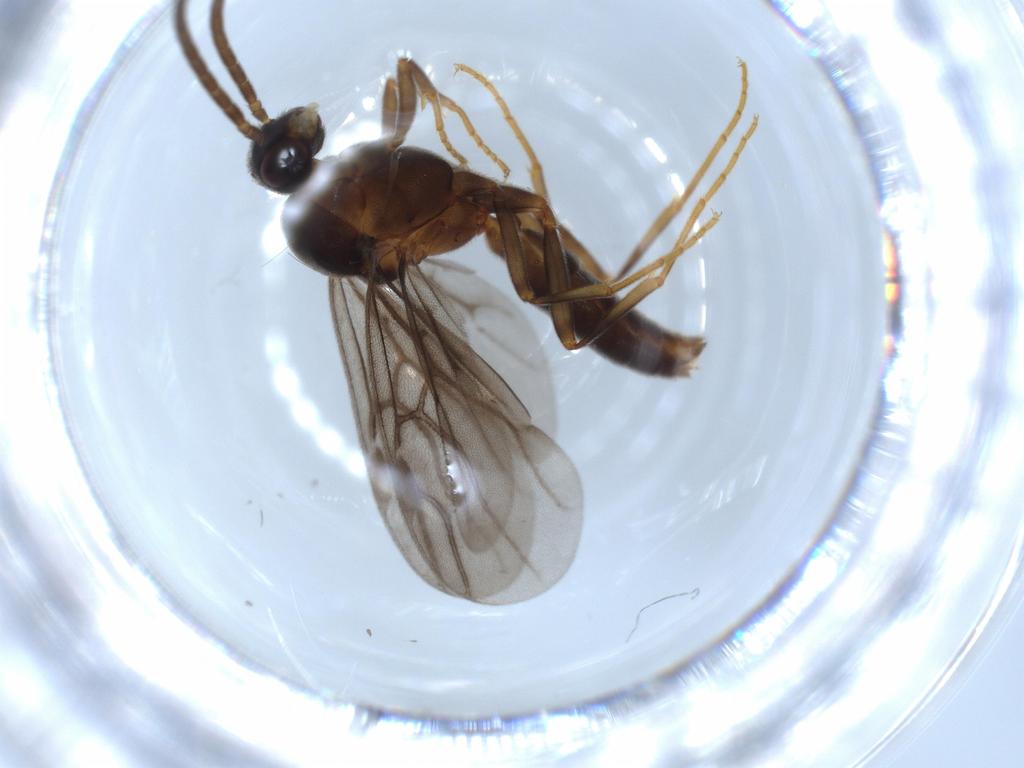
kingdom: Animalia
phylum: Arthropoda
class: Insecta
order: Hymenoptera
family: Formicidae
